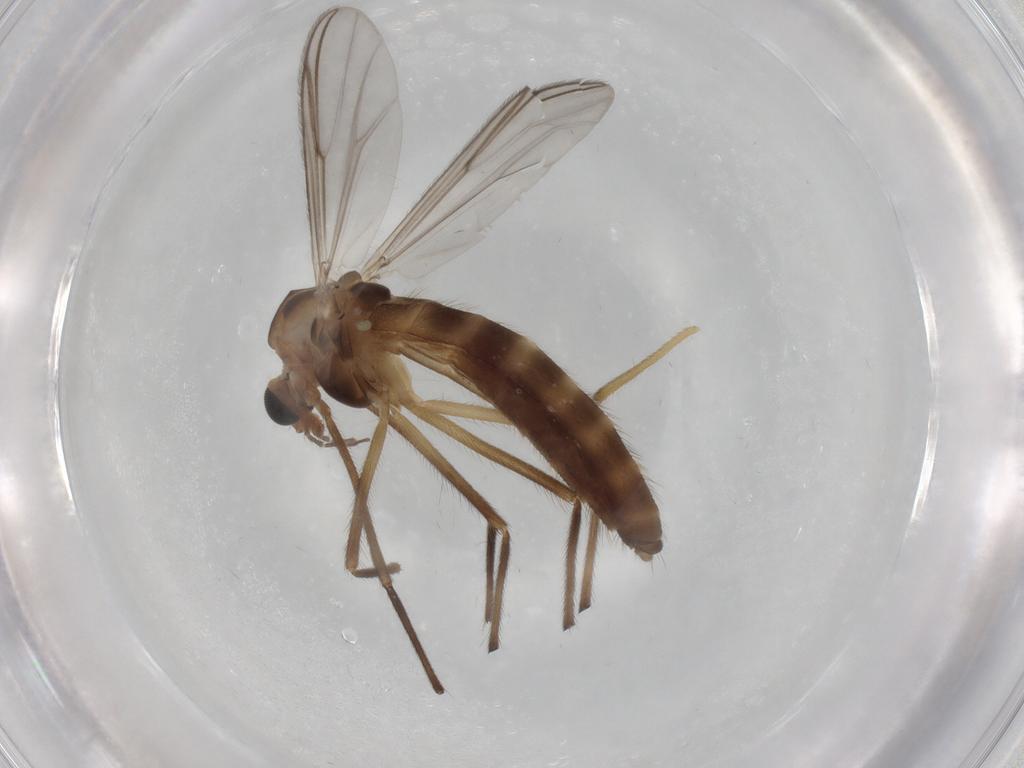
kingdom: Animalia
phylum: Arthropoda
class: Insecta
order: Diptera
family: Chironomidae
